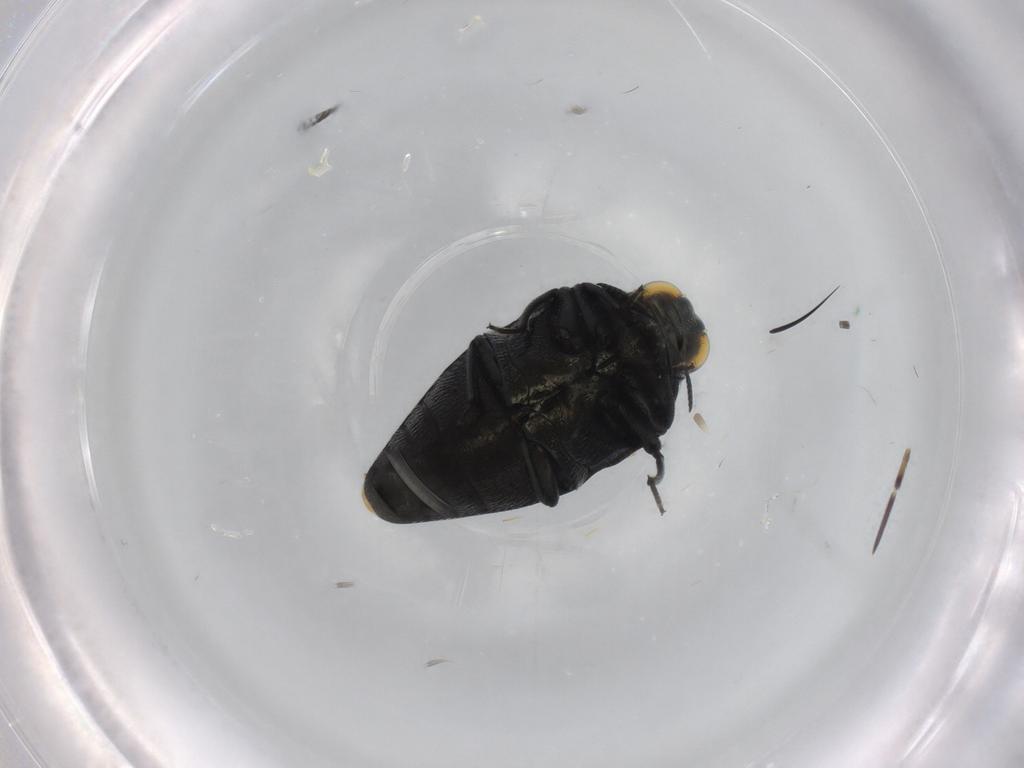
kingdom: Animalia
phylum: Arthropoda
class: Insecta
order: Coleoptera
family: Buprestidae
